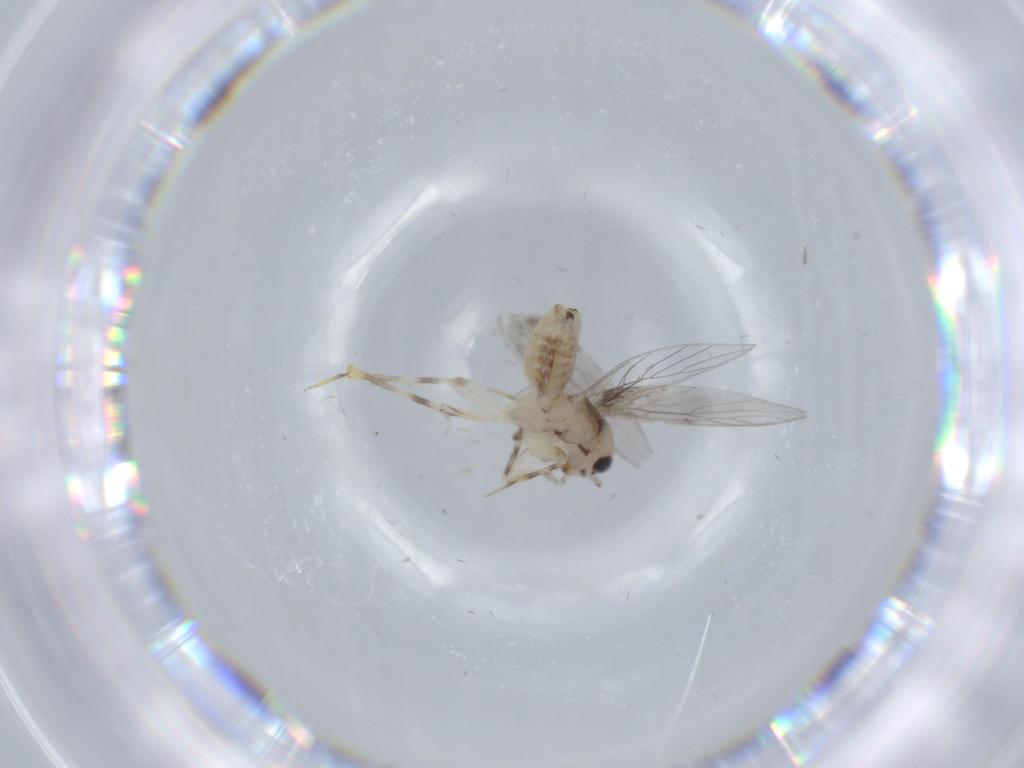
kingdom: Animalia
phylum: Arthropoda
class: Insecta
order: Psocodea
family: Lepidopsocidae
